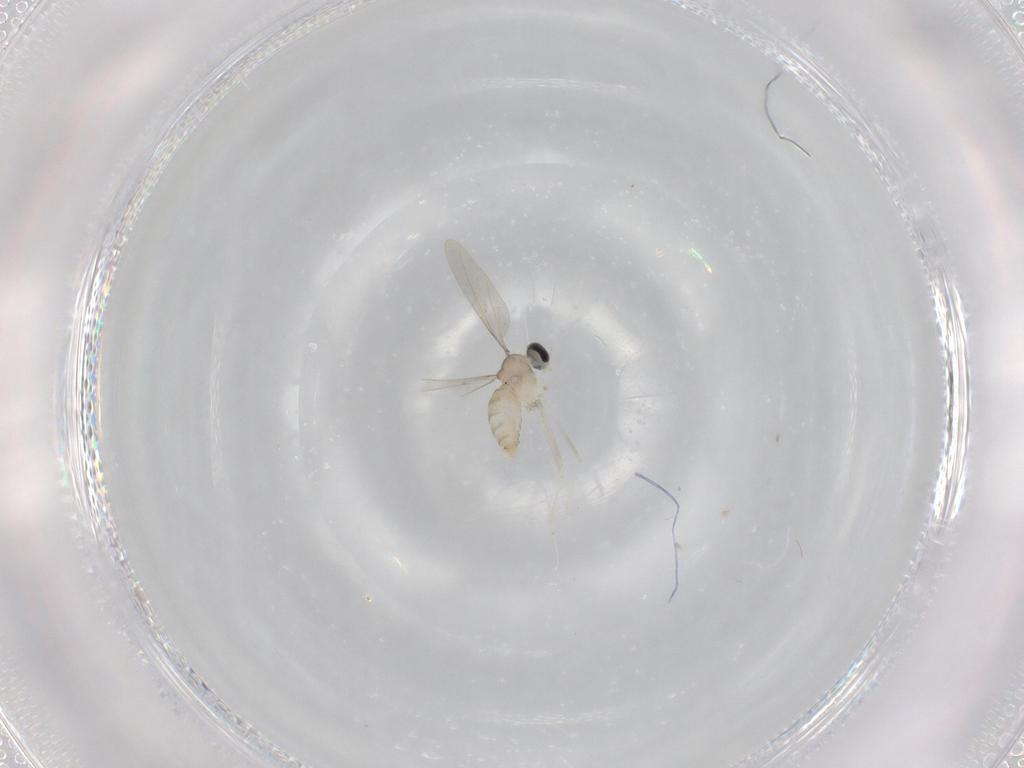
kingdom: Animalia
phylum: Arthropoda
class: Insecta
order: Diptera
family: Cecidomyiidae
